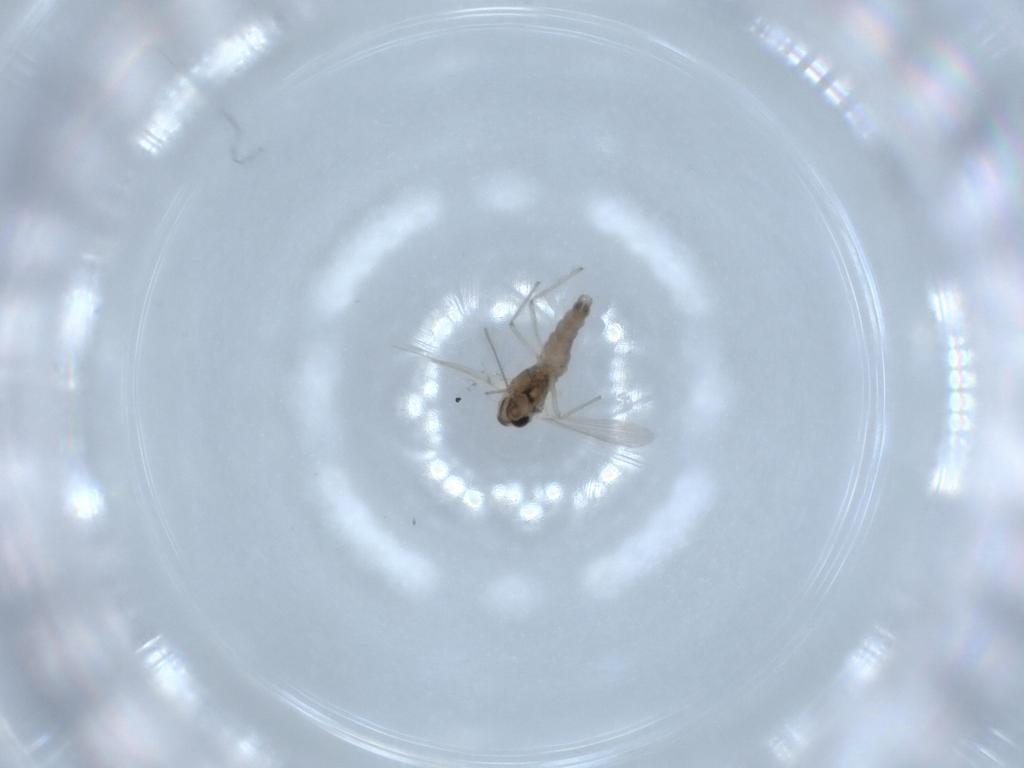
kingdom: Animalia
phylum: Arthropoda
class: Insecta
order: Diptera
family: Chironomidae
